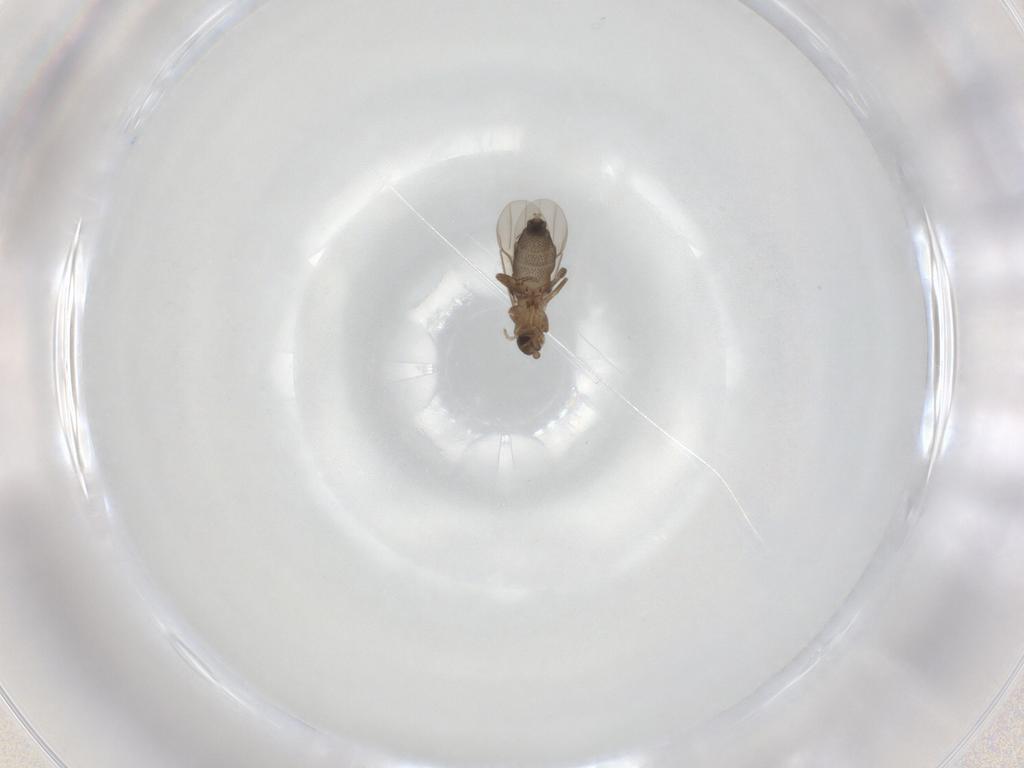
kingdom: Animalia
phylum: Arthropoda
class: Insecta
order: Diptera
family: Phoridae
